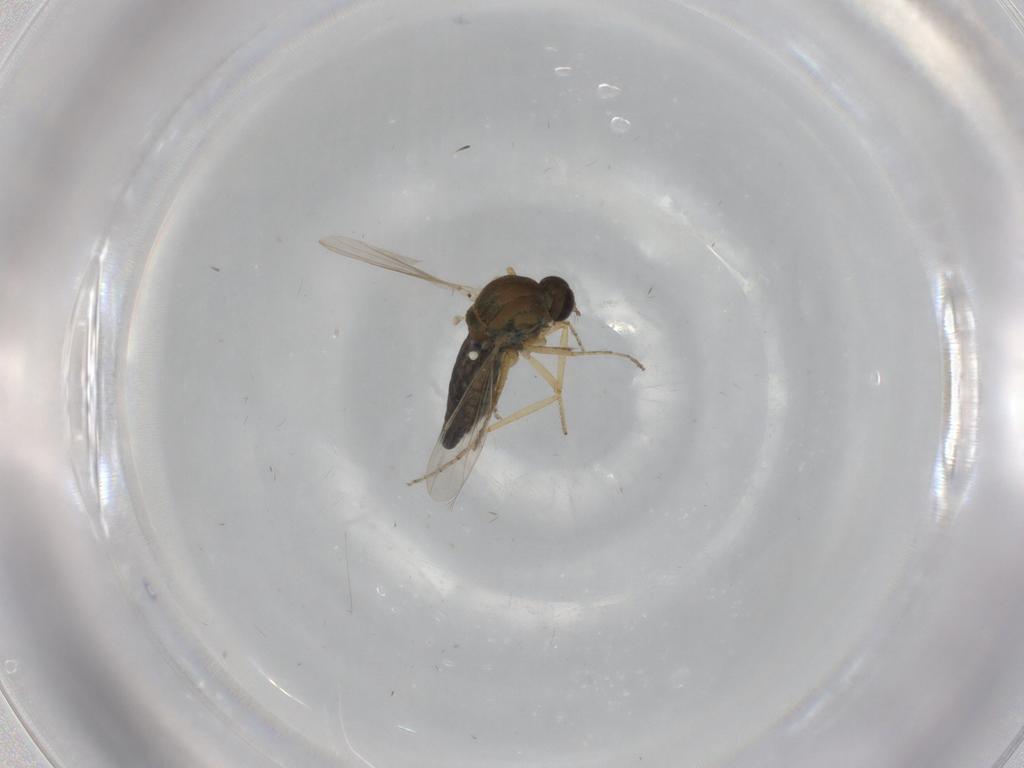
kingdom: Animalia
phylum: Arthropoda
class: Insecta
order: Diptera
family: Ceratopogonidae
